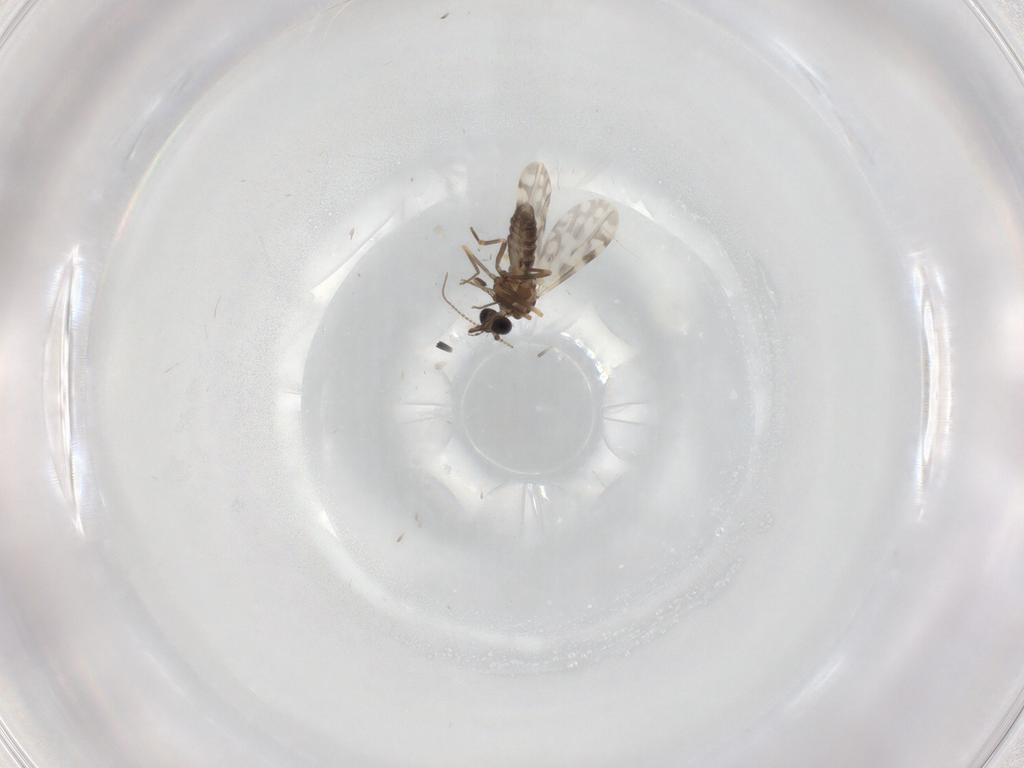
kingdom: Animalia
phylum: Arthropoda
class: Insecta
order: Diptera
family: Ceratopogonidae
